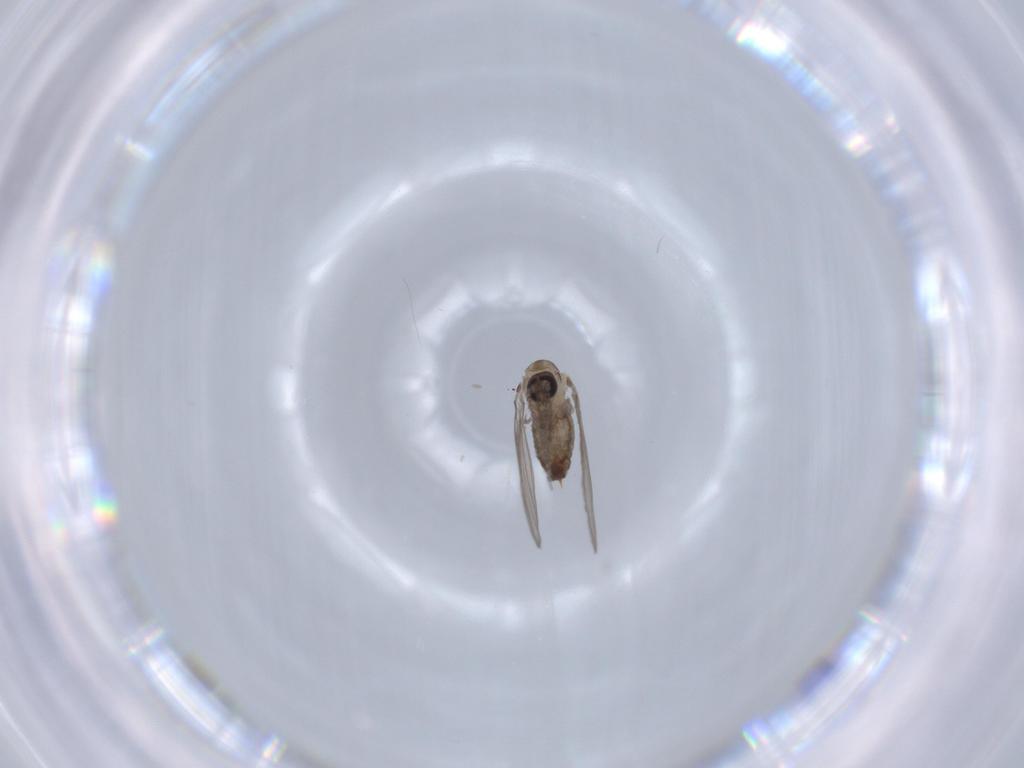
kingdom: Animalia
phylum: Arthropoda
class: Insecta
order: Diptera
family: Psychodidae
